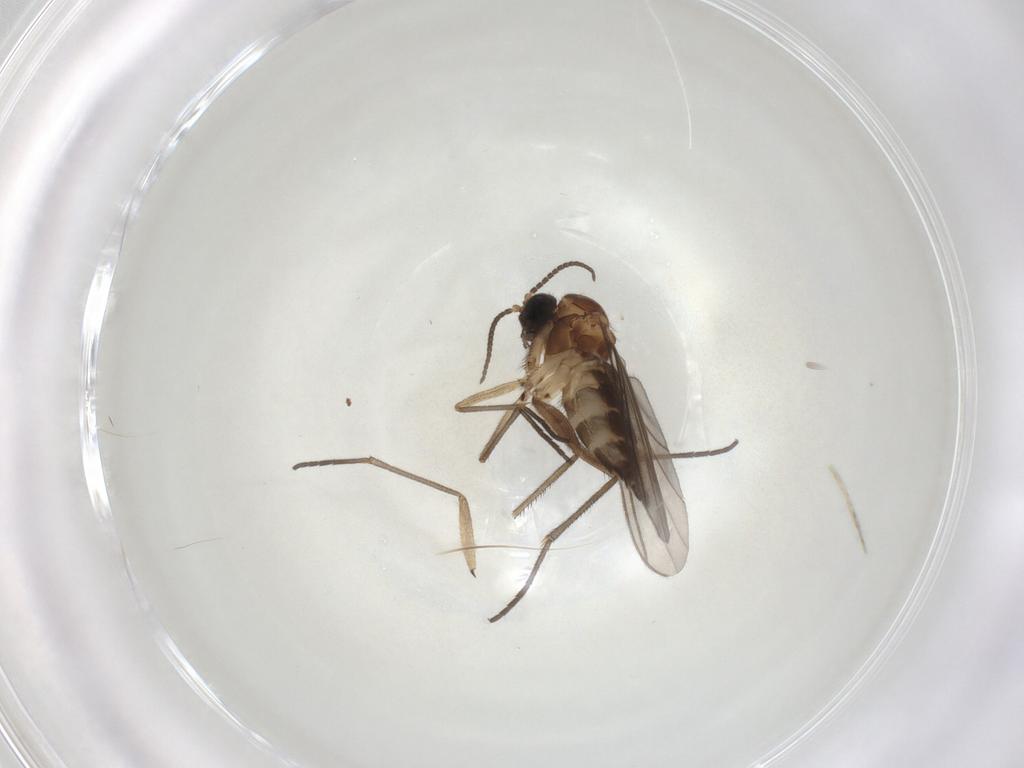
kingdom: Animalia
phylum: Arthropoda
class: Insecta
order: Diptera
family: Sciaridae
